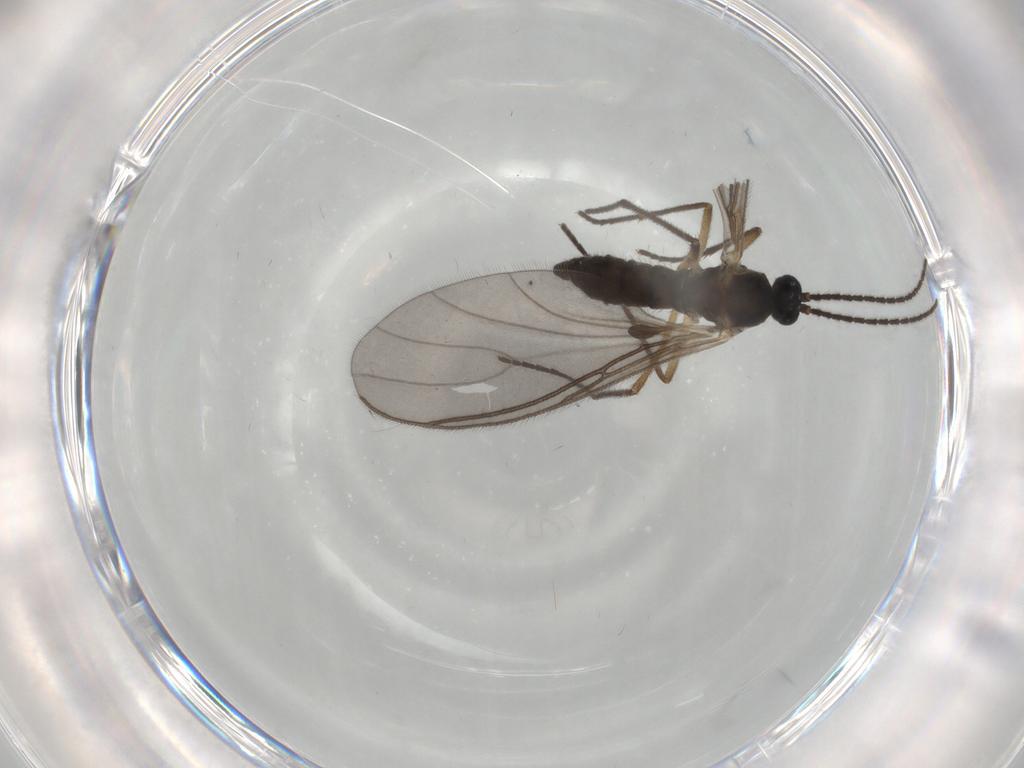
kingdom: Animalia
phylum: Arthropoda
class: Insecta
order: Diptera
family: Sciaridae
